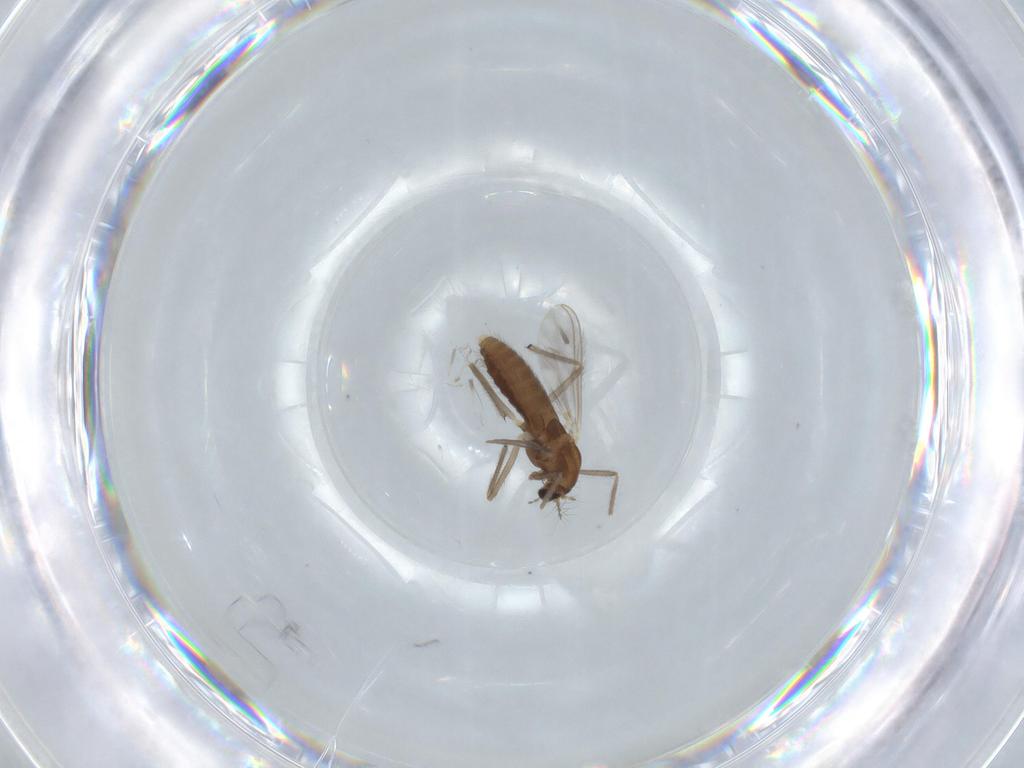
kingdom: Animalia
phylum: Arthropoda
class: Insecta
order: Diptera
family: Chironomidae
